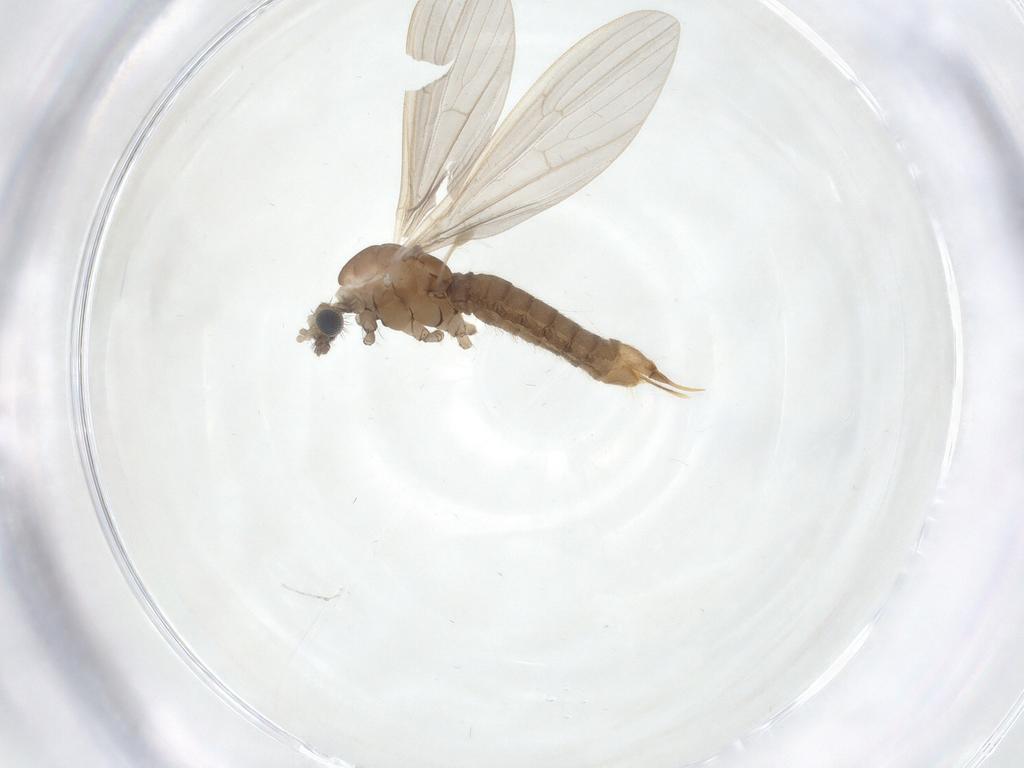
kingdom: Animalia
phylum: Arthropoda
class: Insecta
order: Diptera
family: Limoniidae
